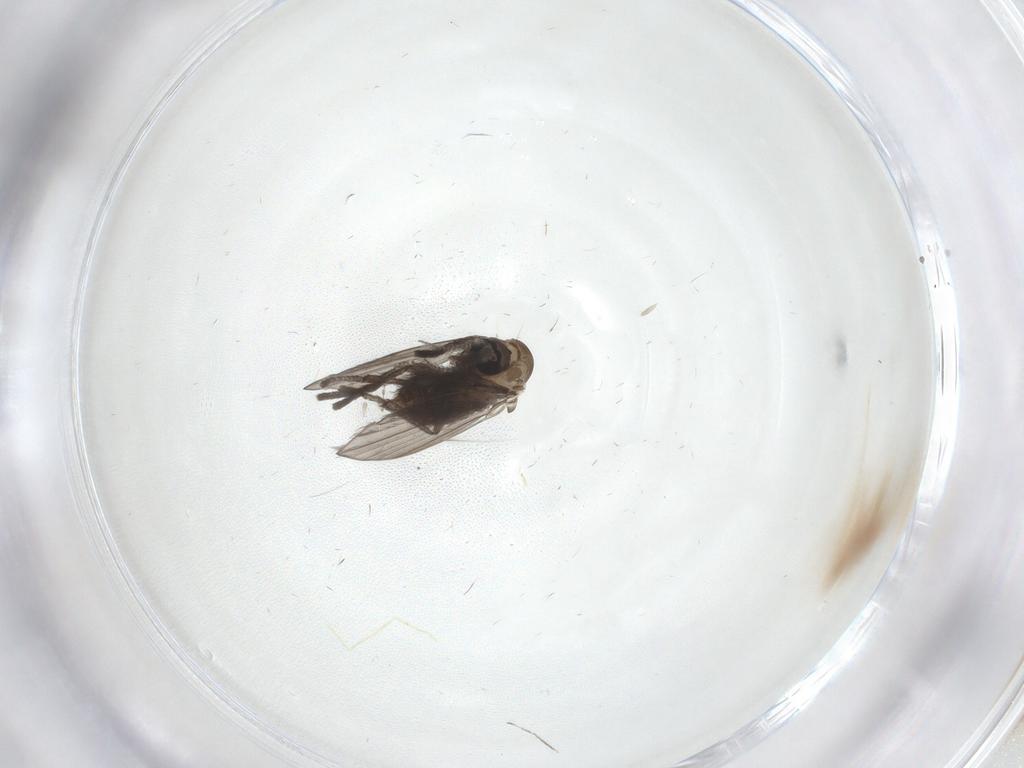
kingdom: Animalia
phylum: Arthropoda
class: Insecta
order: Diptera
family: Psychodidae
